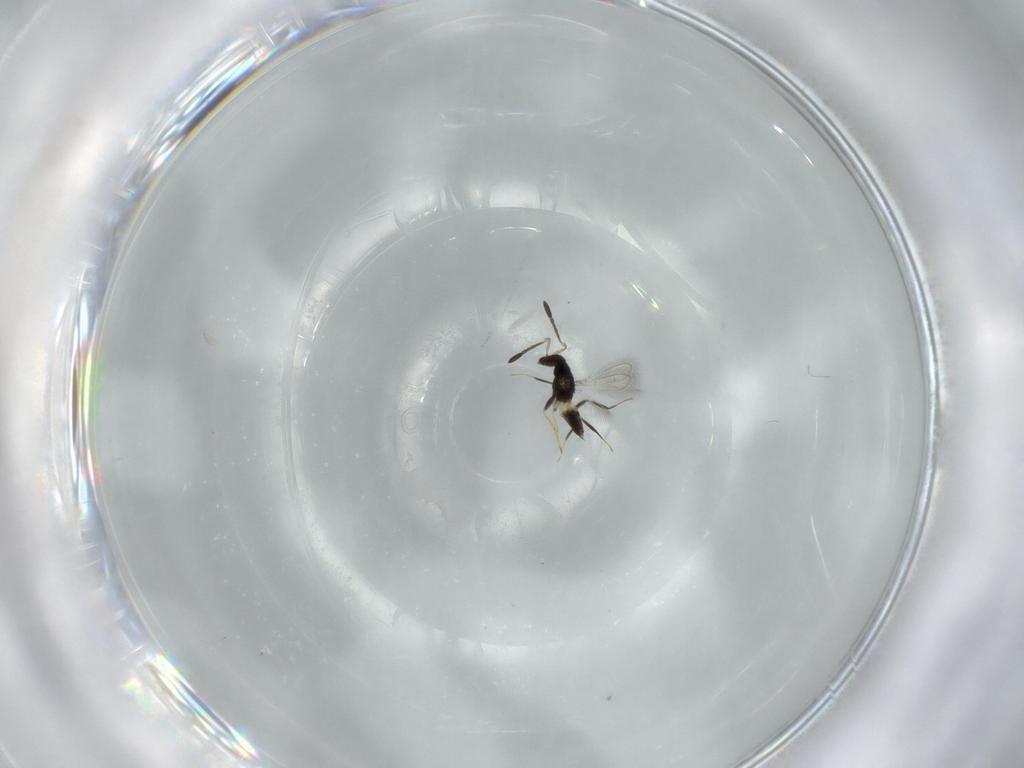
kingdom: Animalia
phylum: Arthropoda
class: Insecta
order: Hymenoptera
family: Mymaridae
